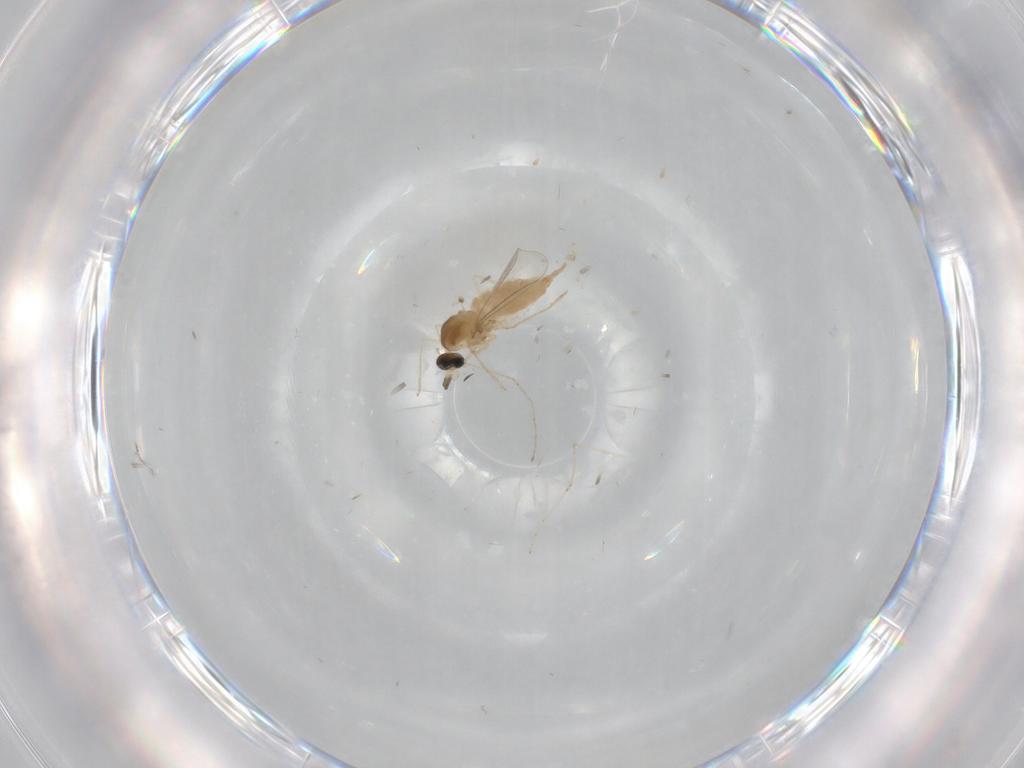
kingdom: Animalia
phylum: Arthropoda
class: Insecta
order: Diptera
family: Cecidomyiidae
